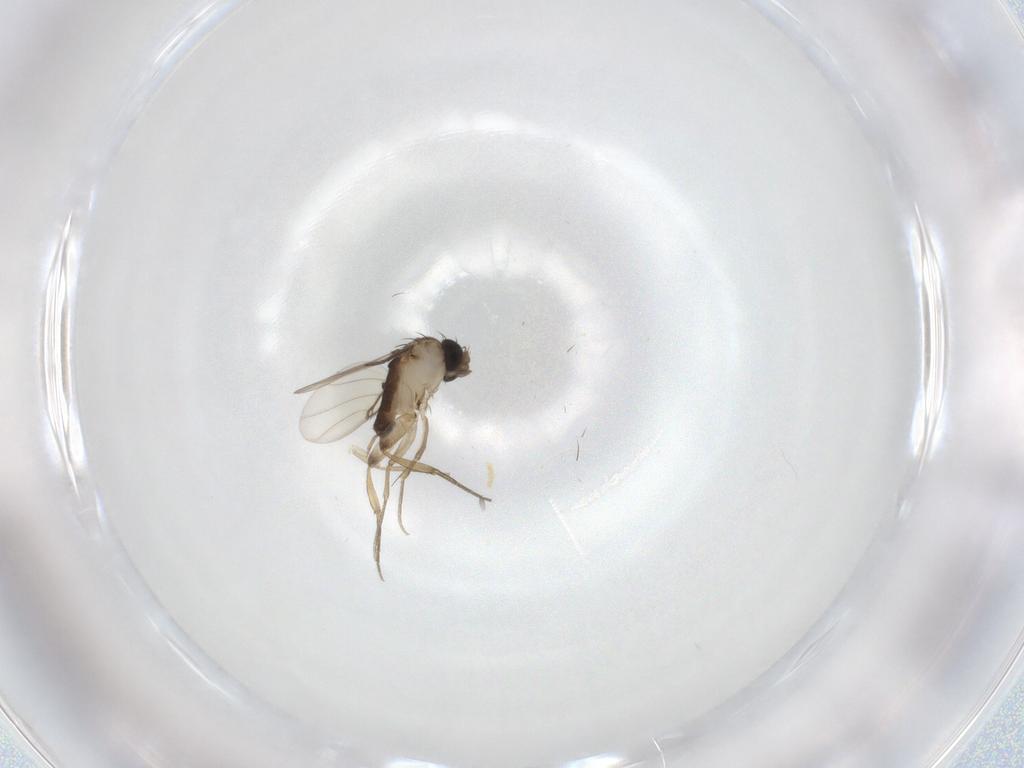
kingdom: Animalia
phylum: Arthropoda
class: Insecta
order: Diptera
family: Phoridae
